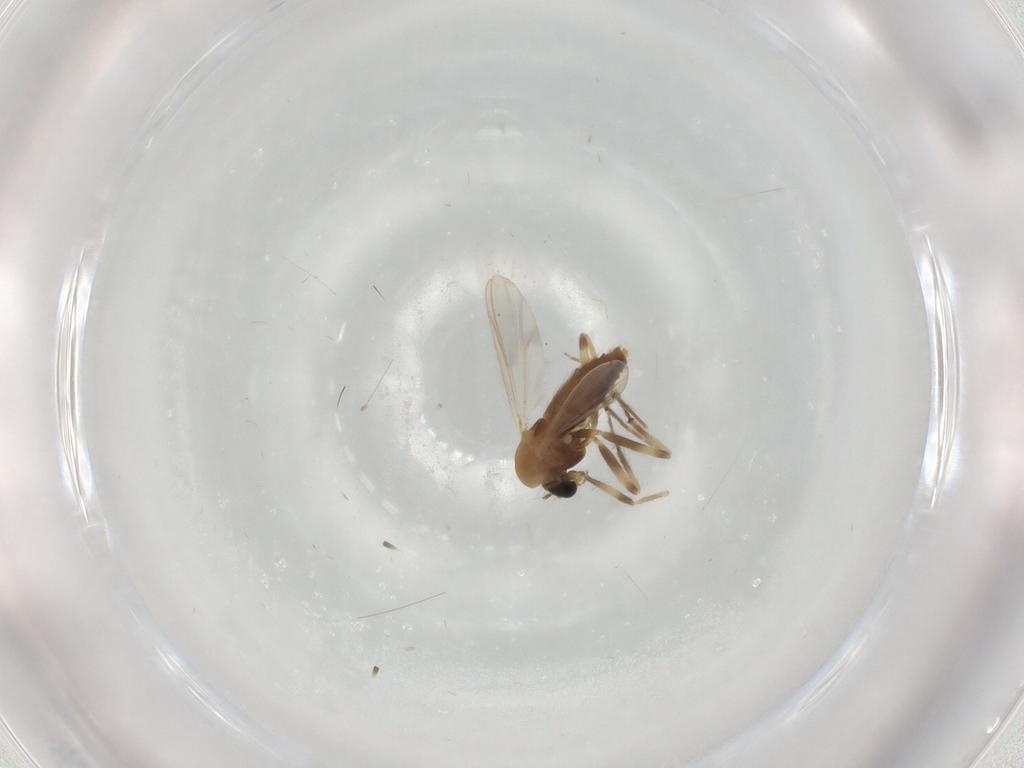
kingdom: Animalia
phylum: Arthropoda
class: Insecta
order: Diptera
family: Chironomidae
